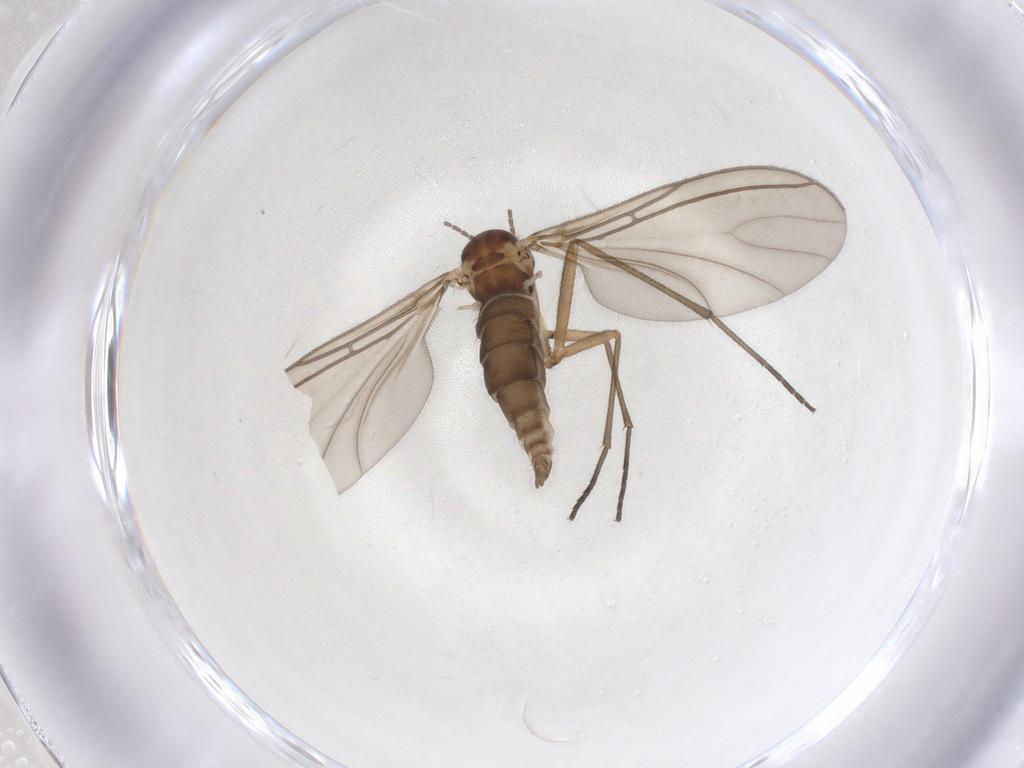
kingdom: Animalia
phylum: Arthropoda
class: Insecta
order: Diptera
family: Sciaridae
